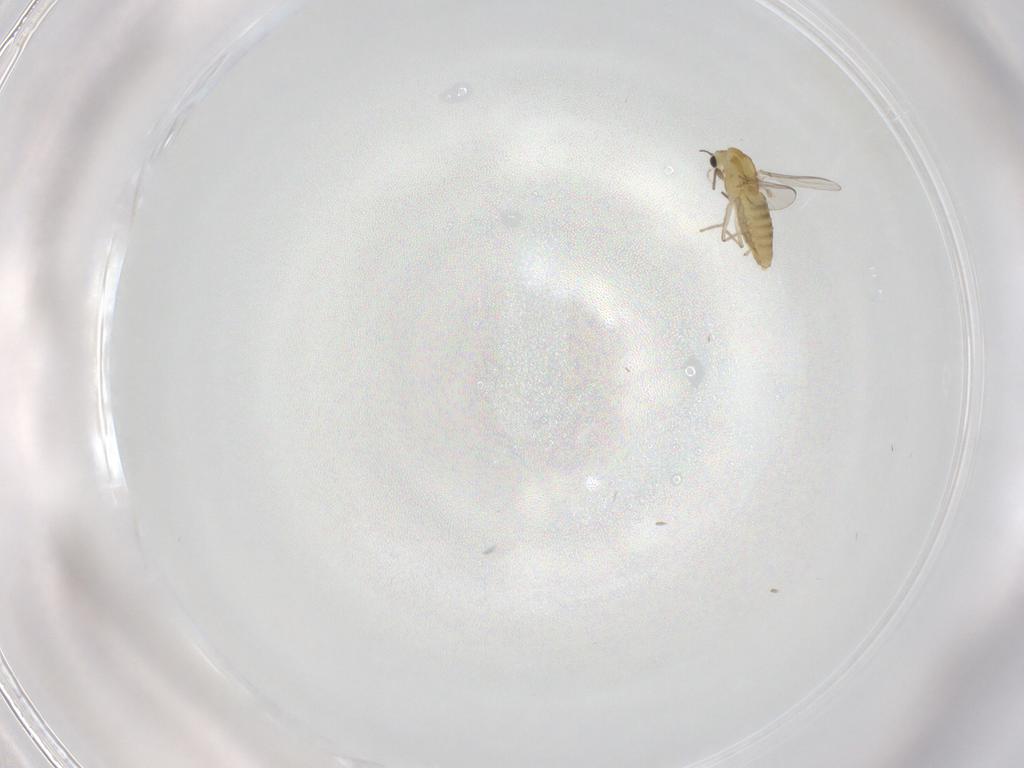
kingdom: Animalia
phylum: Arthropoda
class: Insecta
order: Diptera
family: Chironomidae
